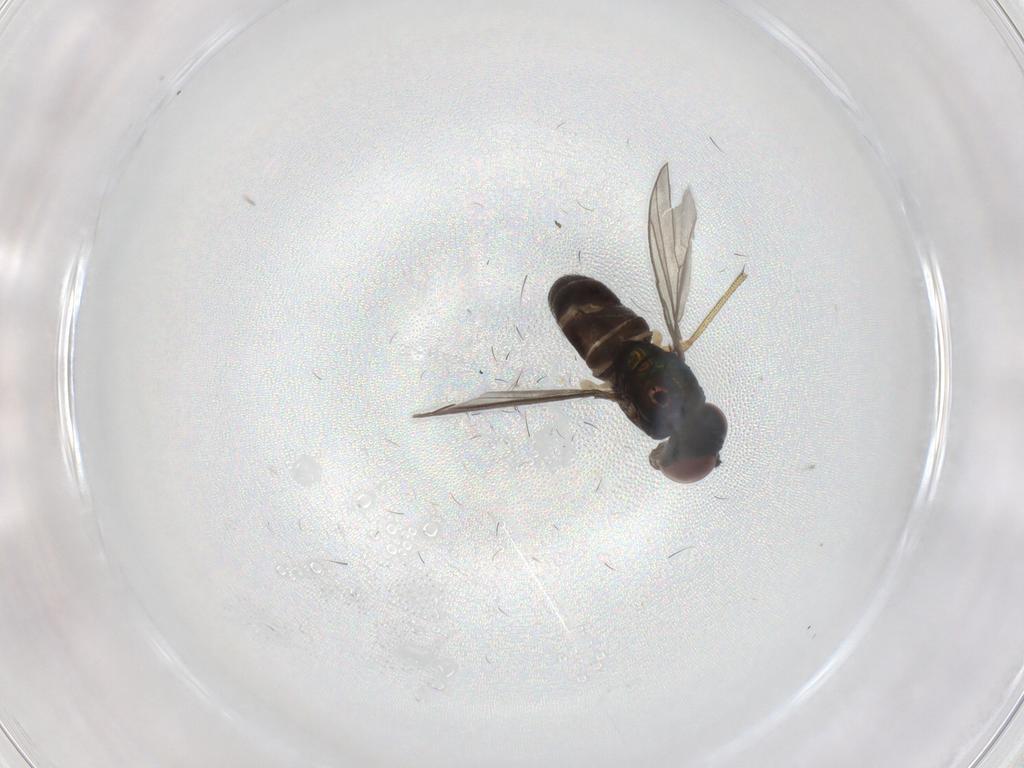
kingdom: Animalia
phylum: Arthropoda
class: Insecta
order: Diptera
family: Dolichopodidae
